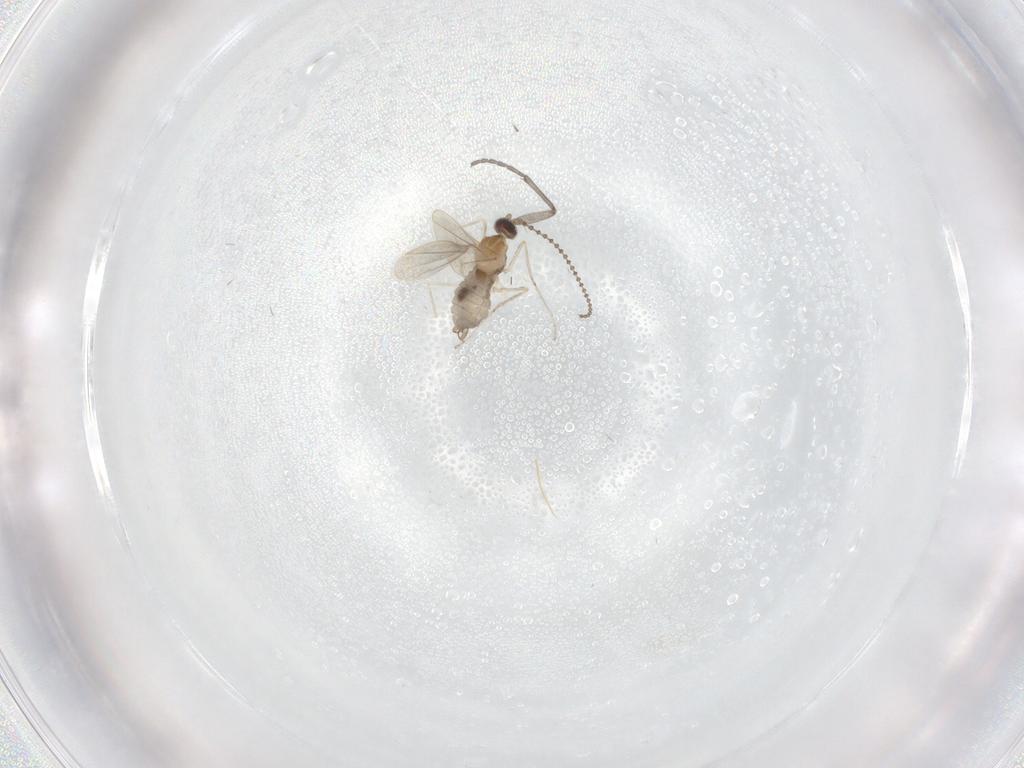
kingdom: Animalia
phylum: Arthropoda
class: Insecta
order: Diptera
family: Cecidomyiidae
